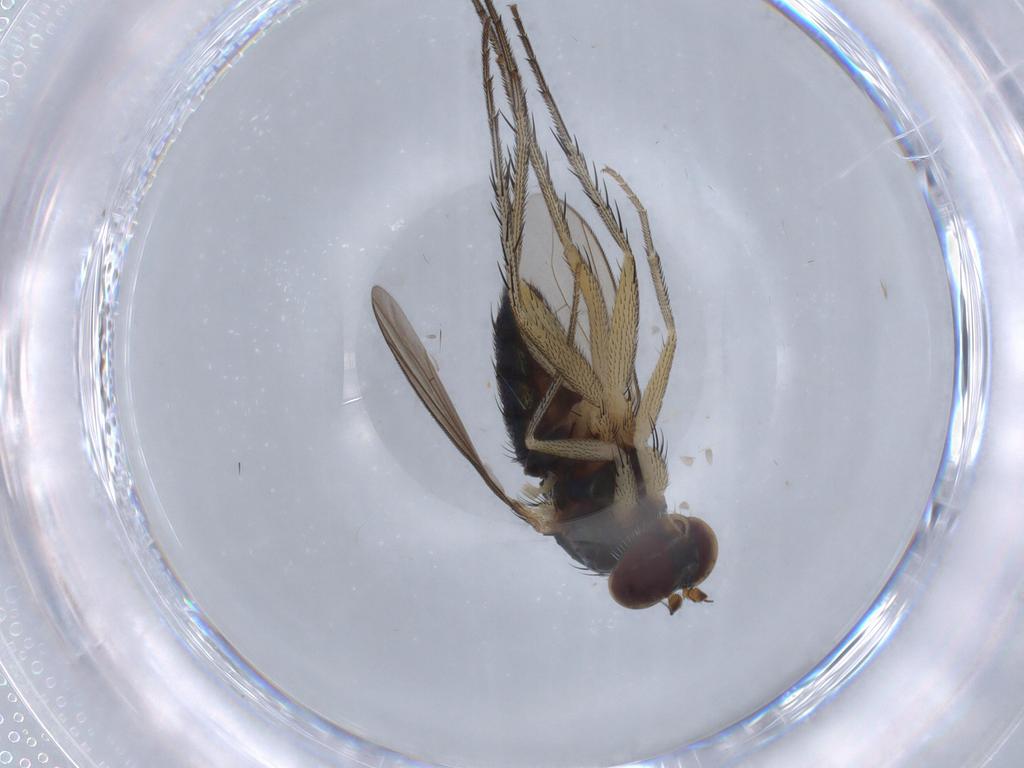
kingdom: Animalia
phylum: Arthropoda
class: Insecta
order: Diptera
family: Dolichopodidae
